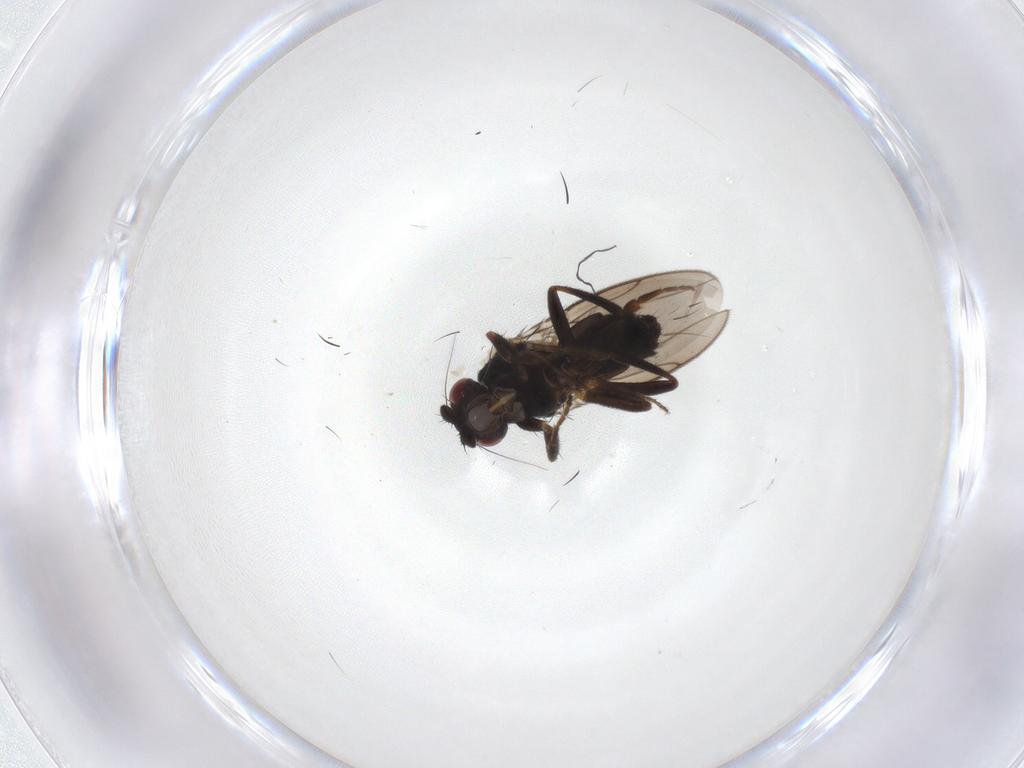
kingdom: Animalia
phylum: Arthropoda
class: Insecta
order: Diptera
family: Sphaeroceridae
